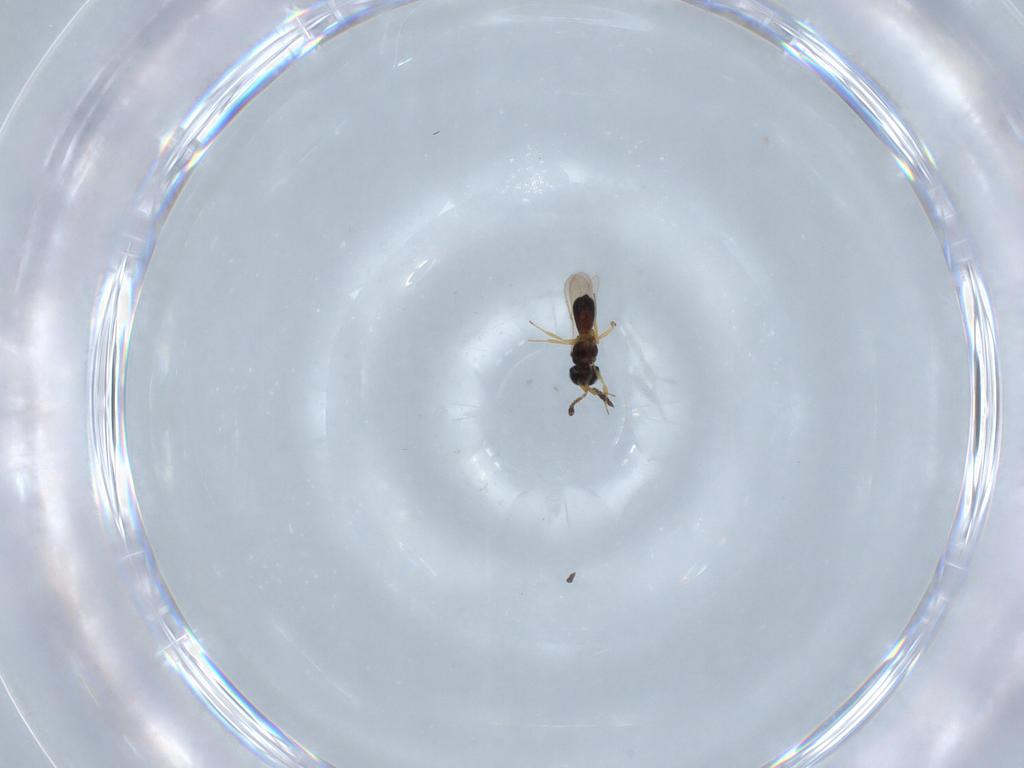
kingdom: Animalia
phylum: Arthropoda
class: Insecta
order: Hymenoptera
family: Scelionidae
